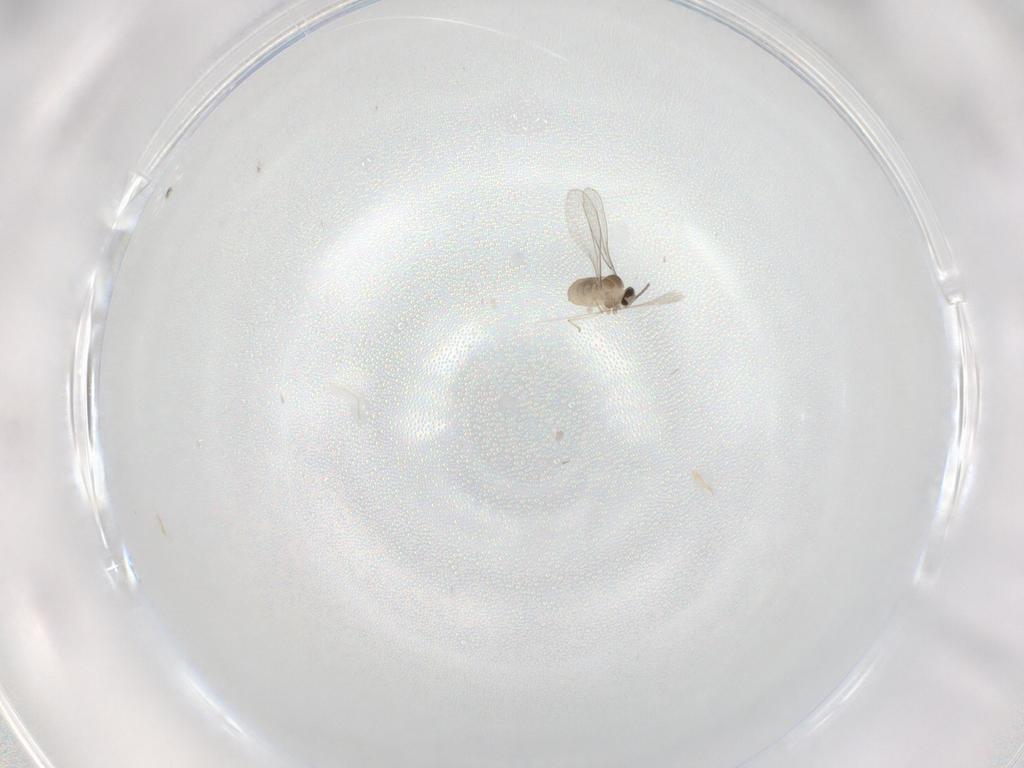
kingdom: Animalia
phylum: Arthropoda
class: Insecta
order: Diptera
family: Cecidomyiidae
